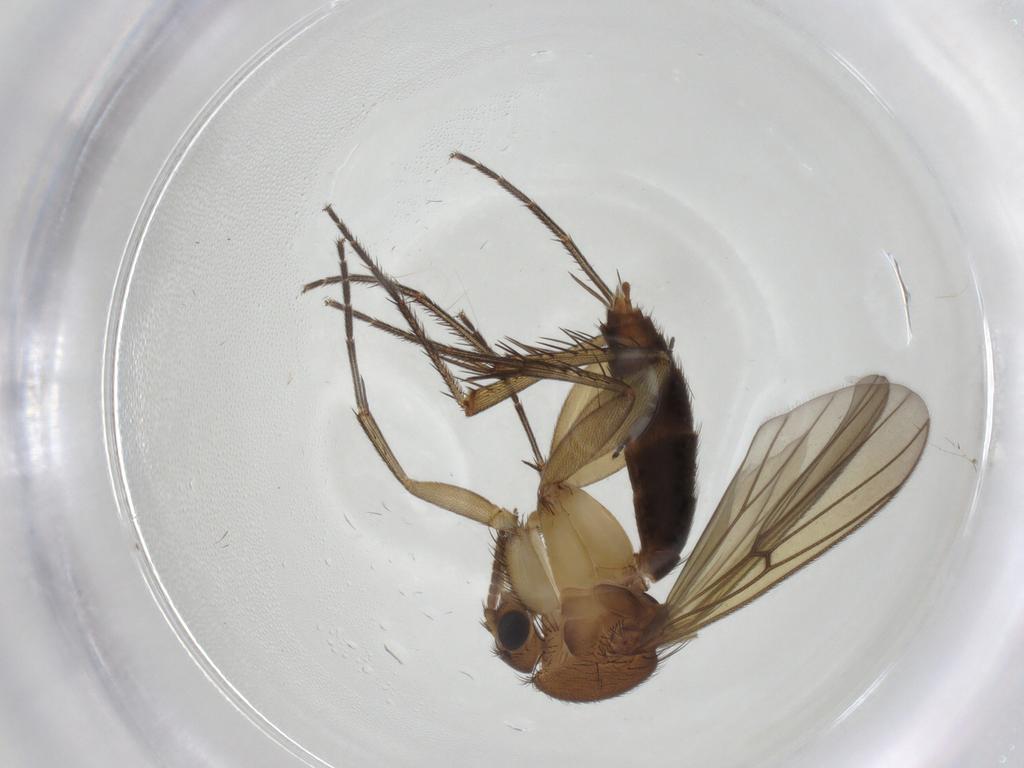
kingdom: Animalia
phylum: Arthropoda
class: Insecta
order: Diptera
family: Mycetophilidae
